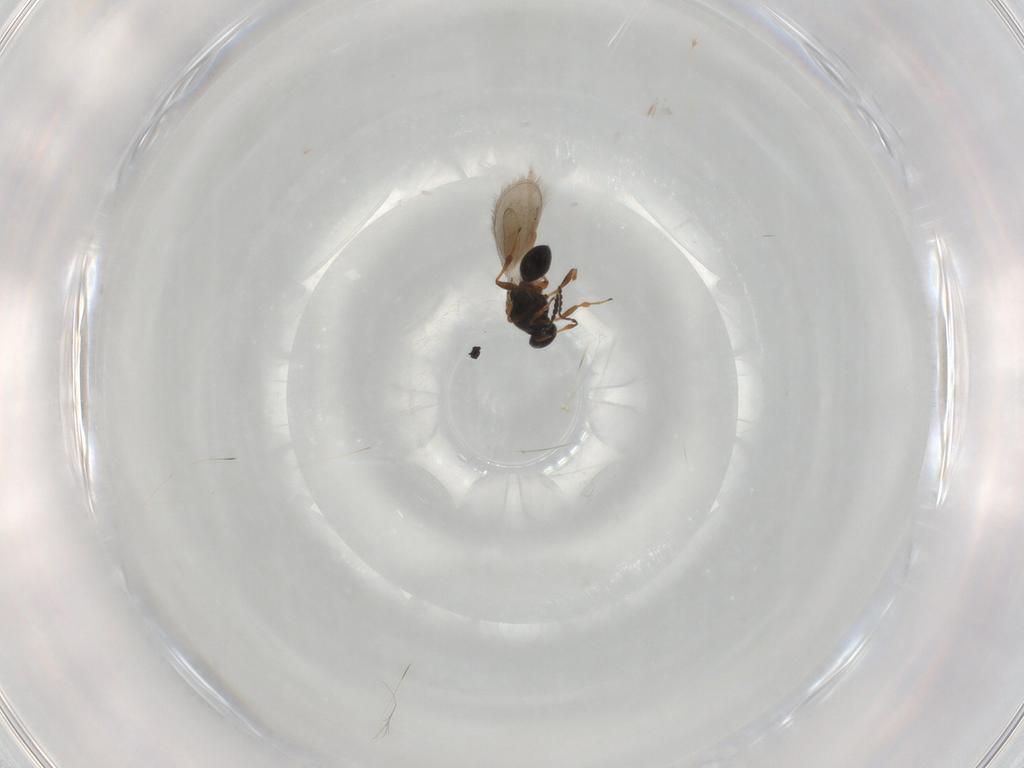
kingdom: Animalia
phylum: Arthropoda
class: Insecta
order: Hymenoptera
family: Platygastridae
